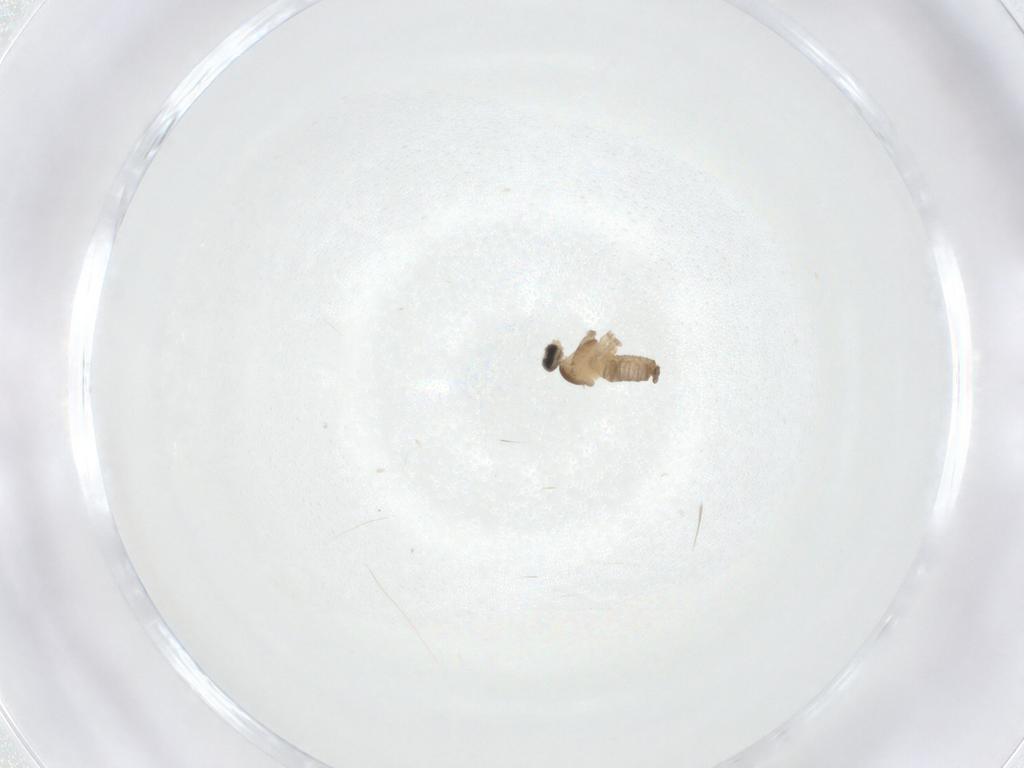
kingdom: Animalia
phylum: Arthropoda
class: Insecta
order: Diptera
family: Cecidomyiidae
